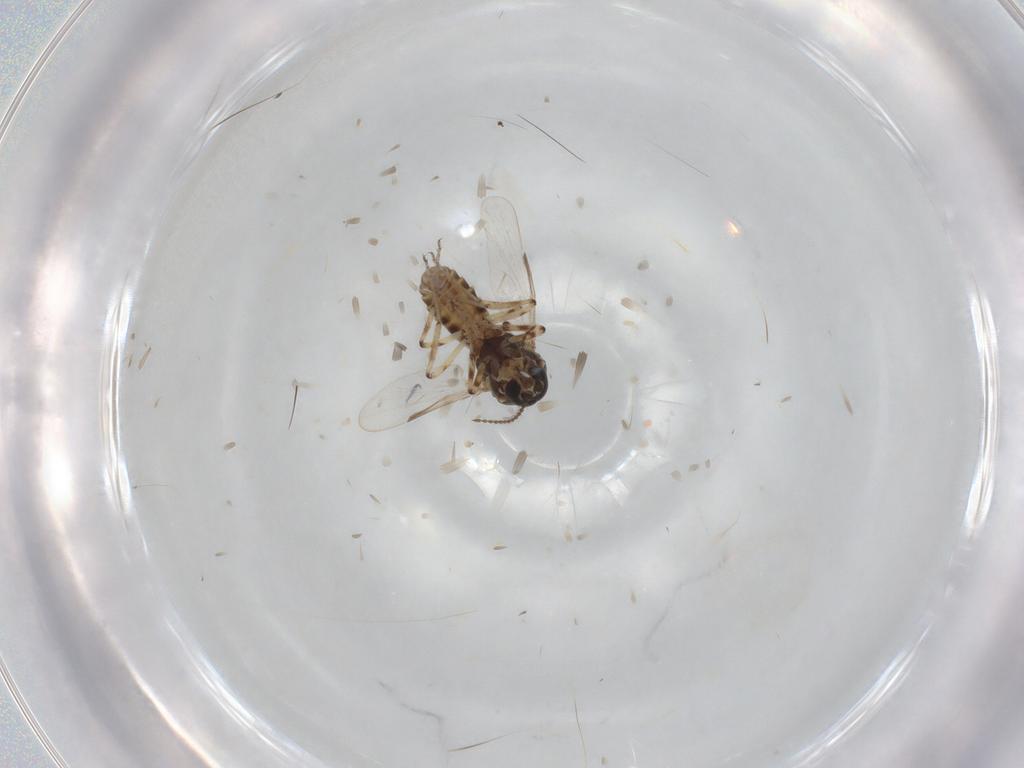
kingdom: Animalia
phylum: Arthropoda
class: Insecta
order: Diptera
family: Ceratopogonidae
